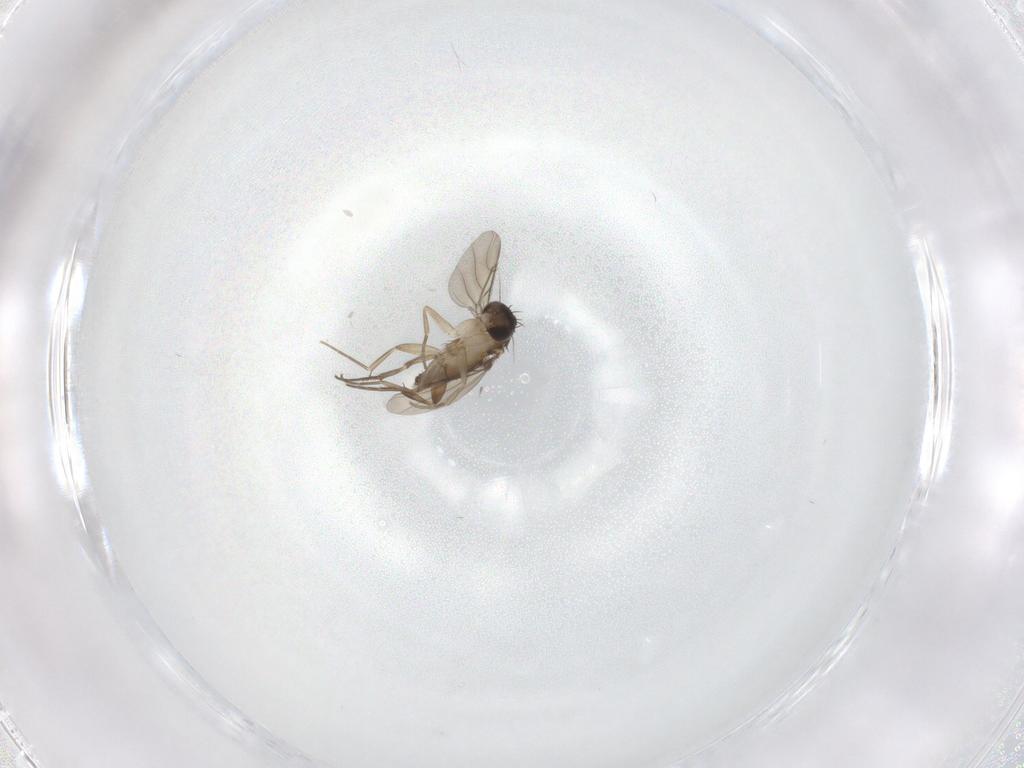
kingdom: Animalia
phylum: Arthropoda
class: Insecta
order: Diptera
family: Phoridae
